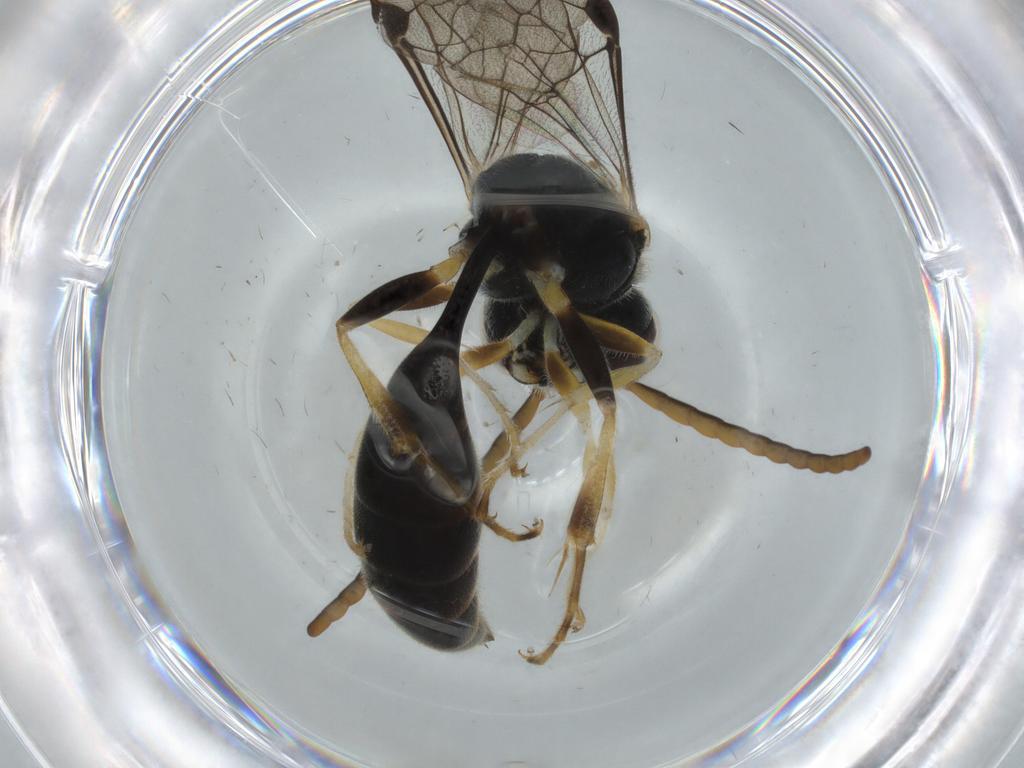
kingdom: Animalia
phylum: Arthropoda
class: Insecta
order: Hymenoptera
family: Psenidae
